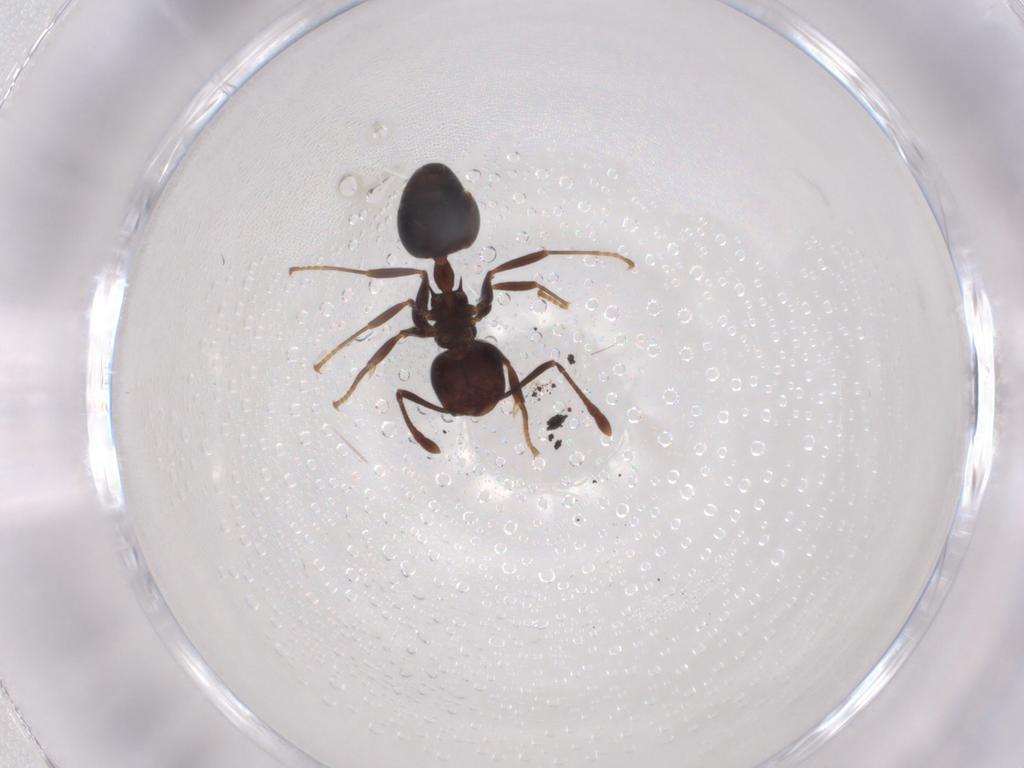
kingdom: Animalia
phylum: Arthropoda
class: Insecta
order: Hymenoptera
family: Formicidae
